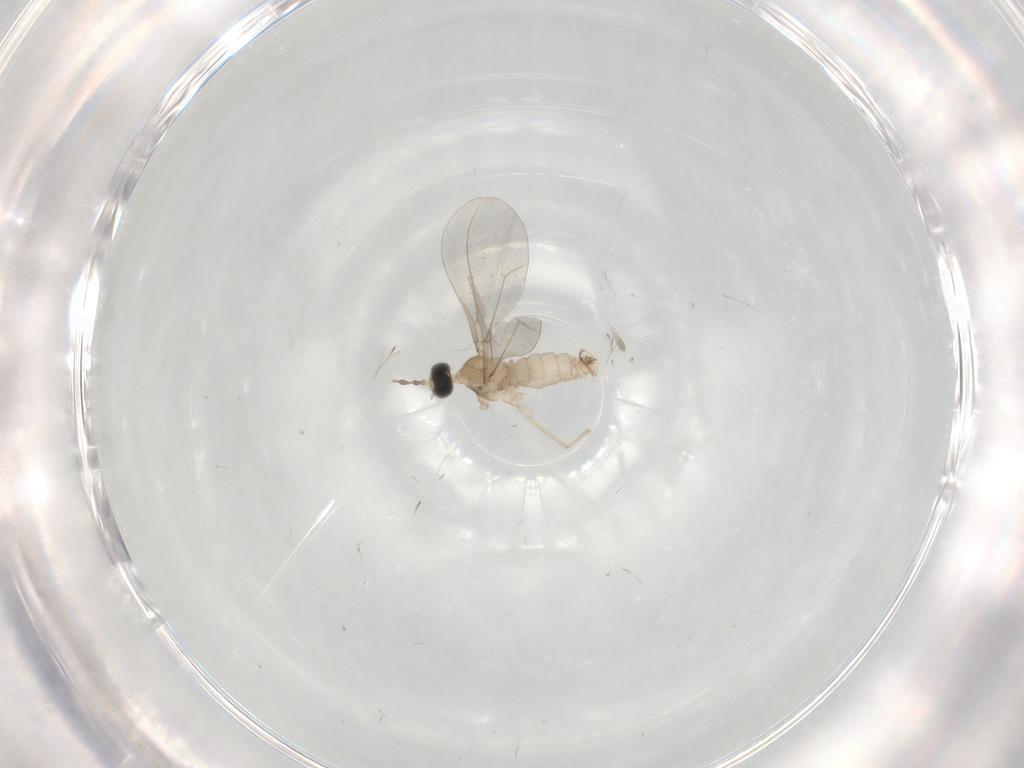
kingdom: Animalia
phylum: Arthropoda
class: Insecta
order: Diptera
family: Cecidomyiidae
